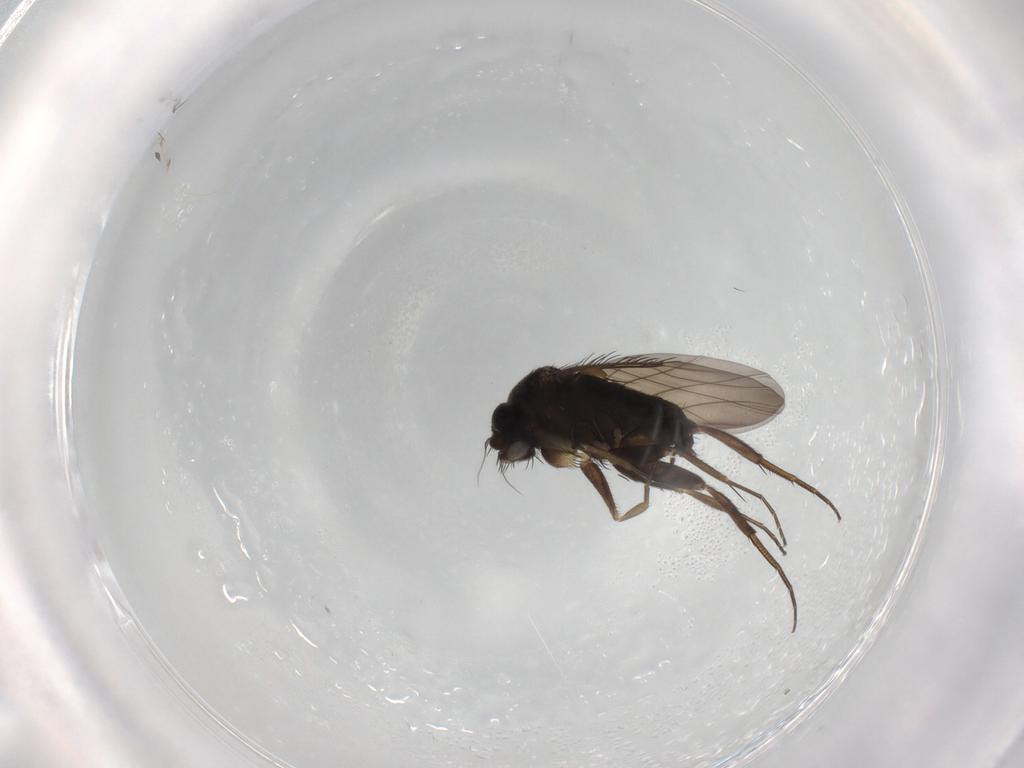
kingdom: Animalia
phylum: Arthropoda
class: Insecta
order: Diptera
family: Phoridae
